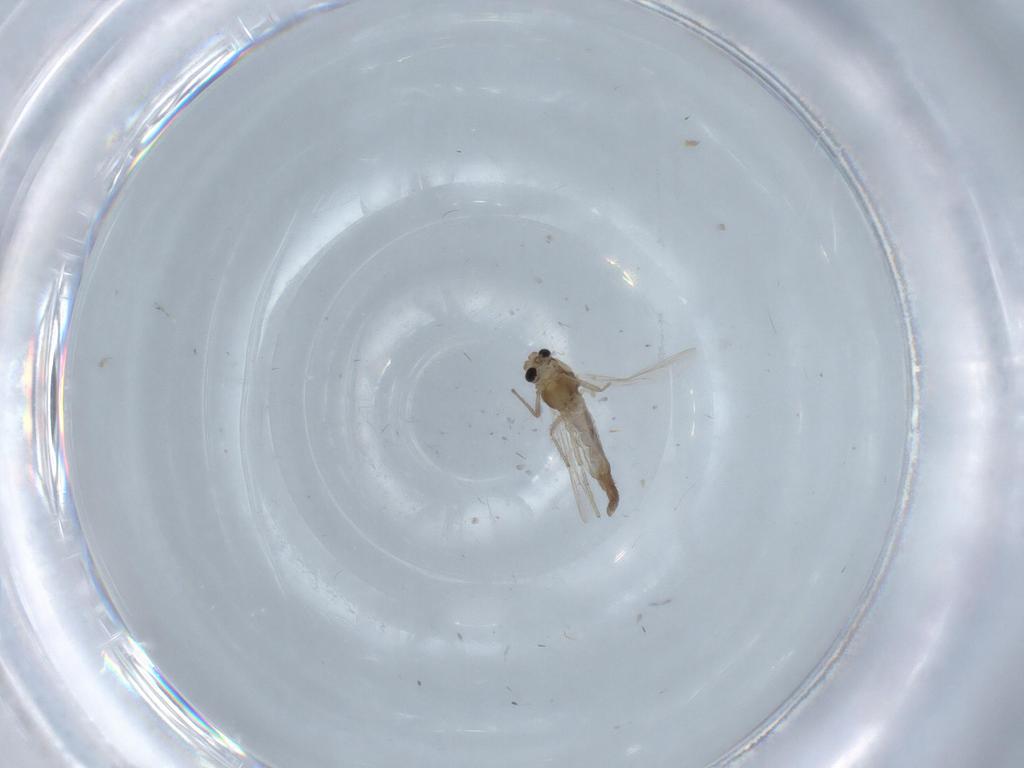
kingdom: Animalia
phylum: Arthropoda
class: Insecta
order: Diptera
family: Chironomidae
